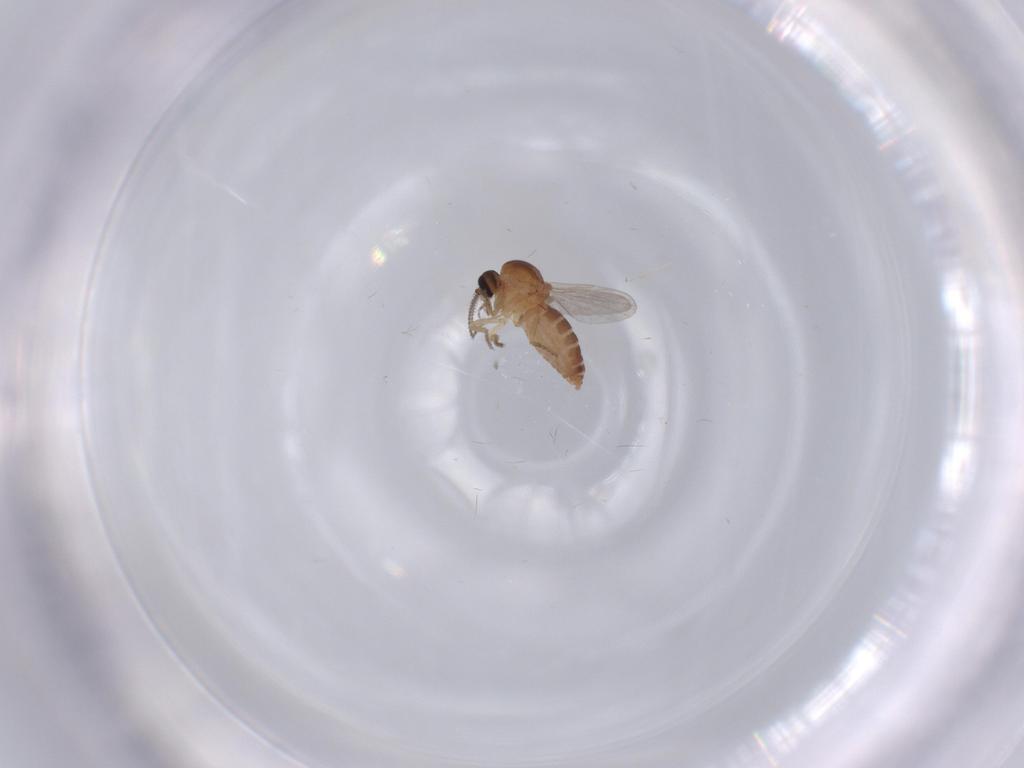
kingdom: Animalia
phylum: Arthropoda
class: Insecta
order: Diptera
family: Ceratopogonidae
